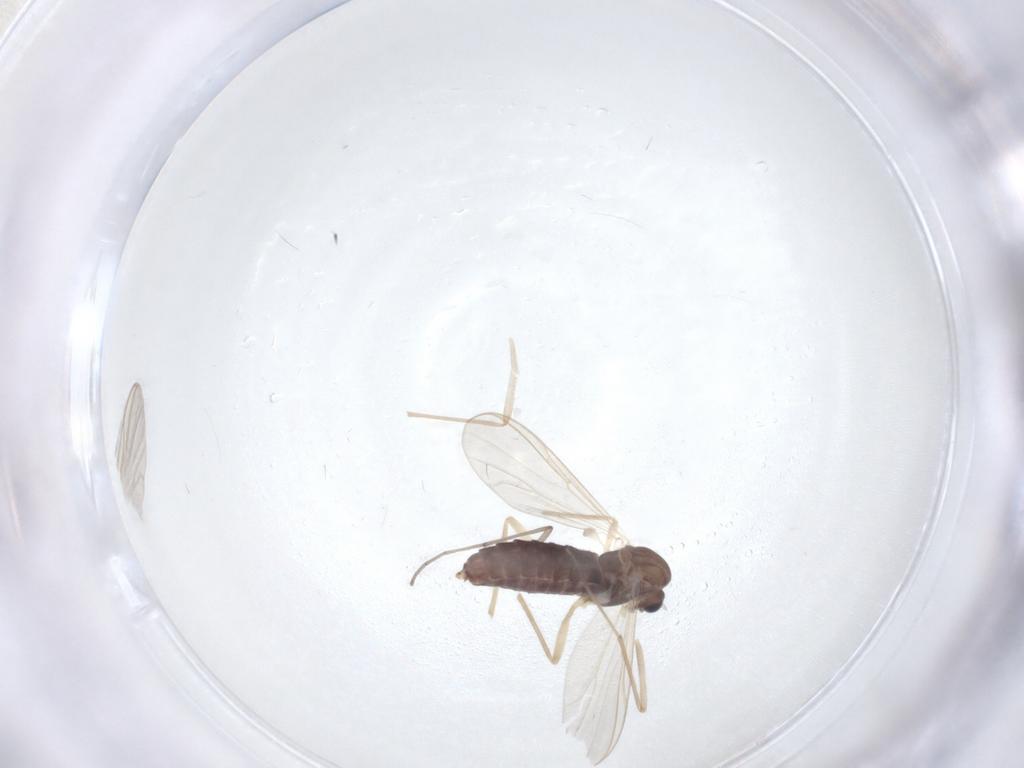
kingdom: Animalia
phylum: Arthropoda
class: Insecta
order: Diptera
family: Chironomidae
